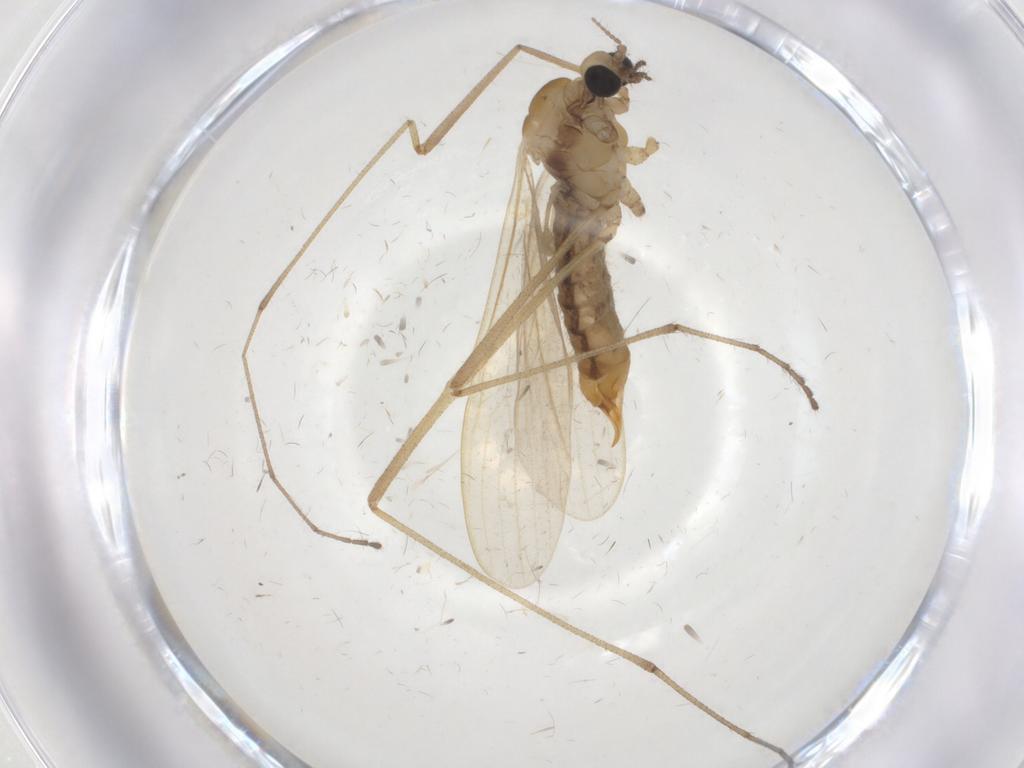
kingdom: Animalia
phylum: Arthropoda
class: Insecta
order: Diptera
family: Limoniidae
